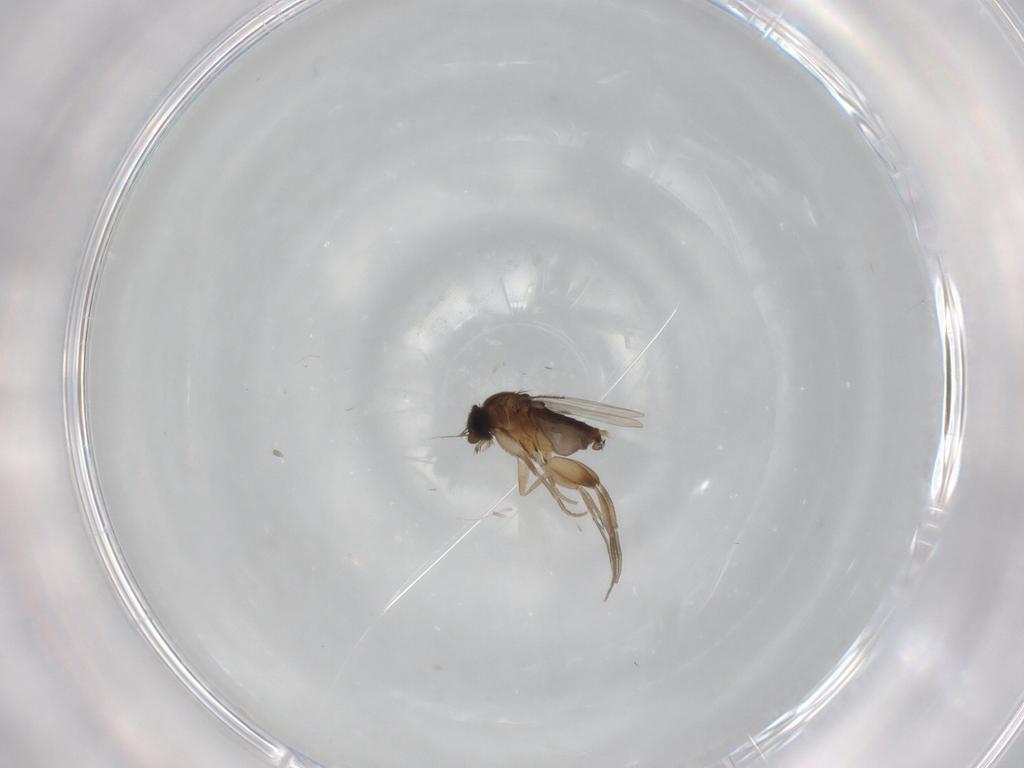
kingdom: Animalia
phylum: Arthropoda
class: Insecta
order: Diptera
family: Phoridae
